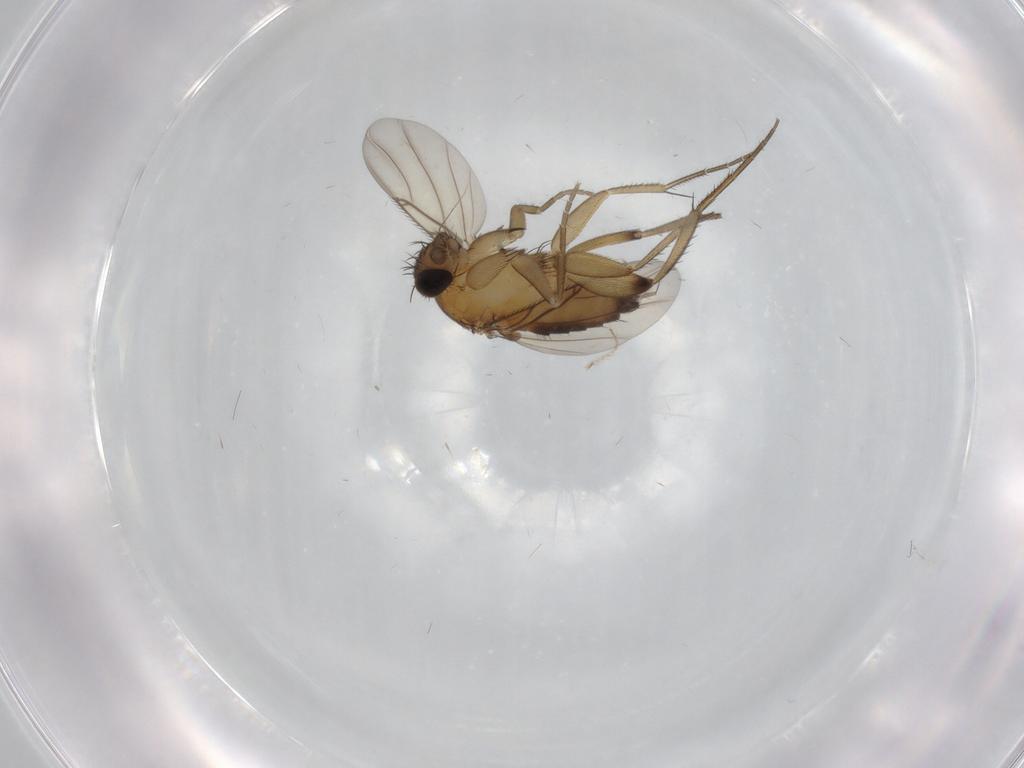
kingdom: Animalia
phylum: Arthropoda
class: Insecta
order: Diptera
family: Phoridae
